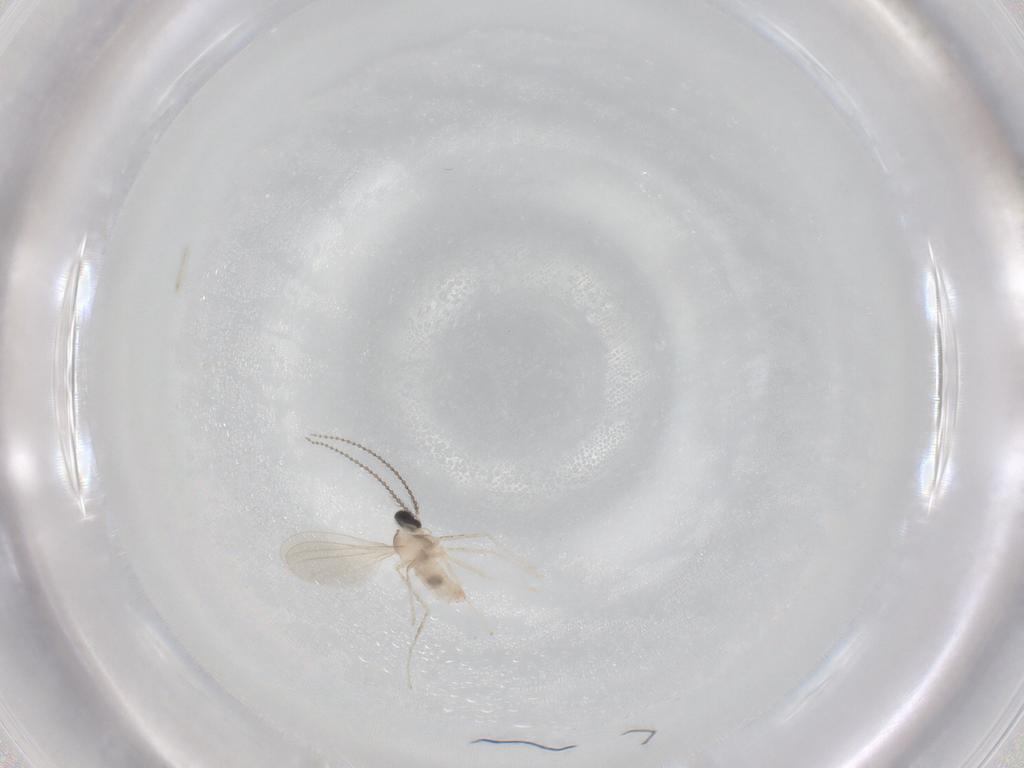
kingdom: Animalia
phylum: Arthropoda
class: Insecta
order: Diptera
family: Cecidomyiidae
